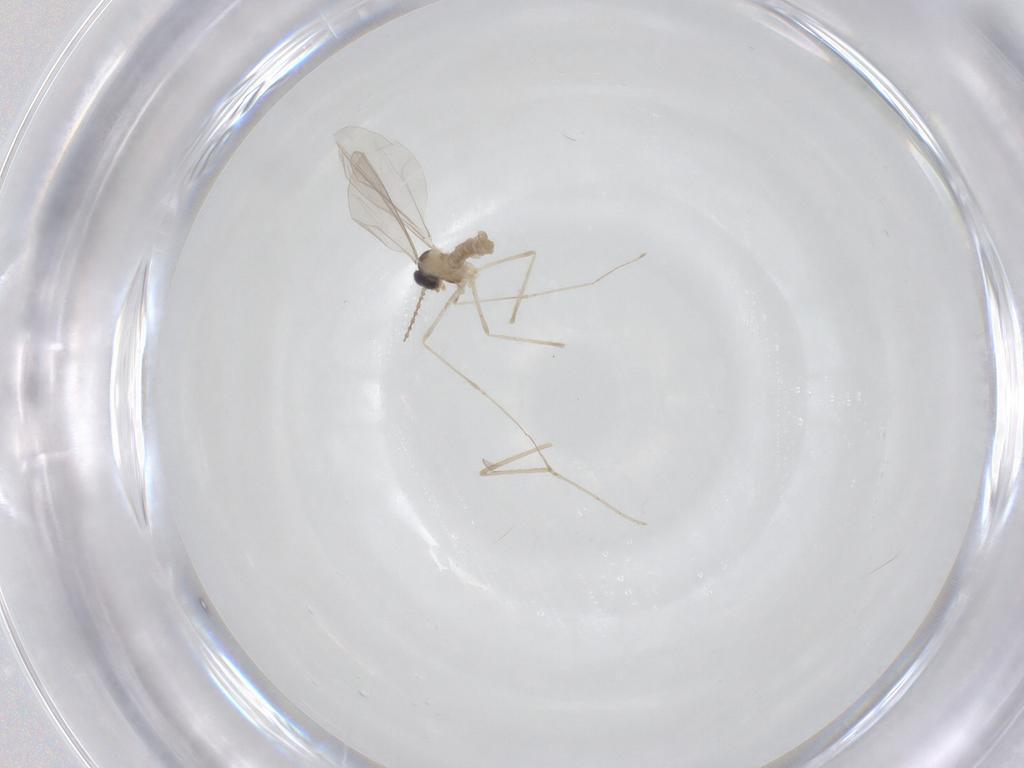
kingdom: Animalia
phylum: Arthropoda
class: Insecta
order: Diptera
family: Cecidomyiidae
